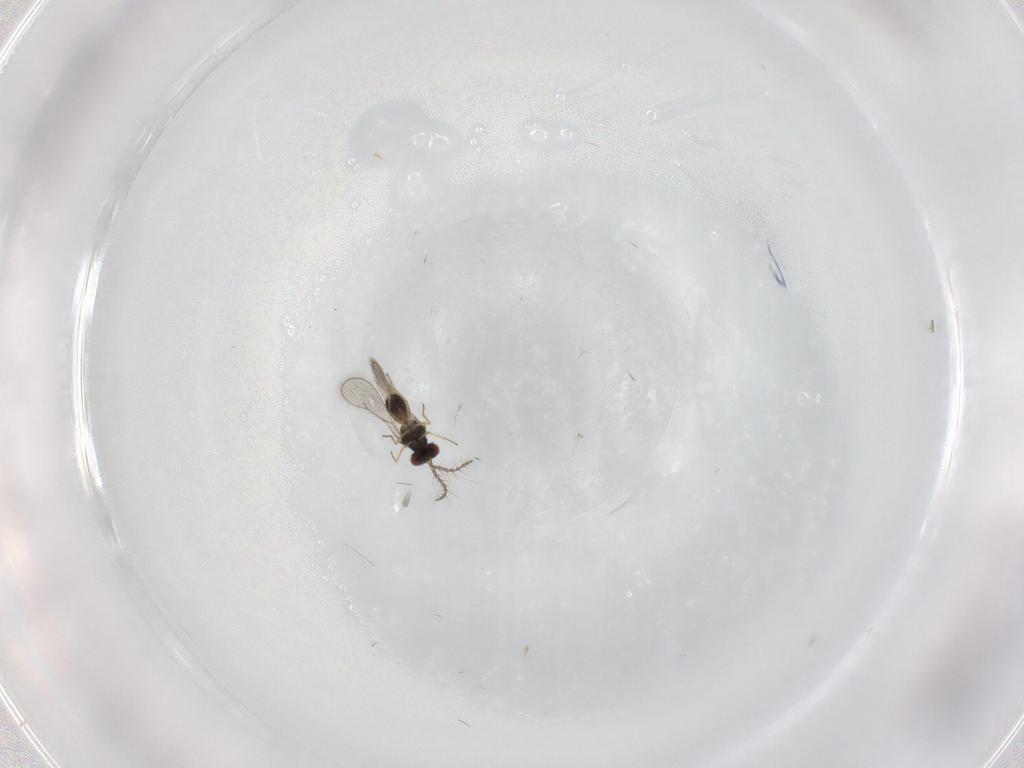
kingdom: Animalia
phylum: Arthropoda
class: Insecta
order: Hymenoptera
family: Eulophidae
